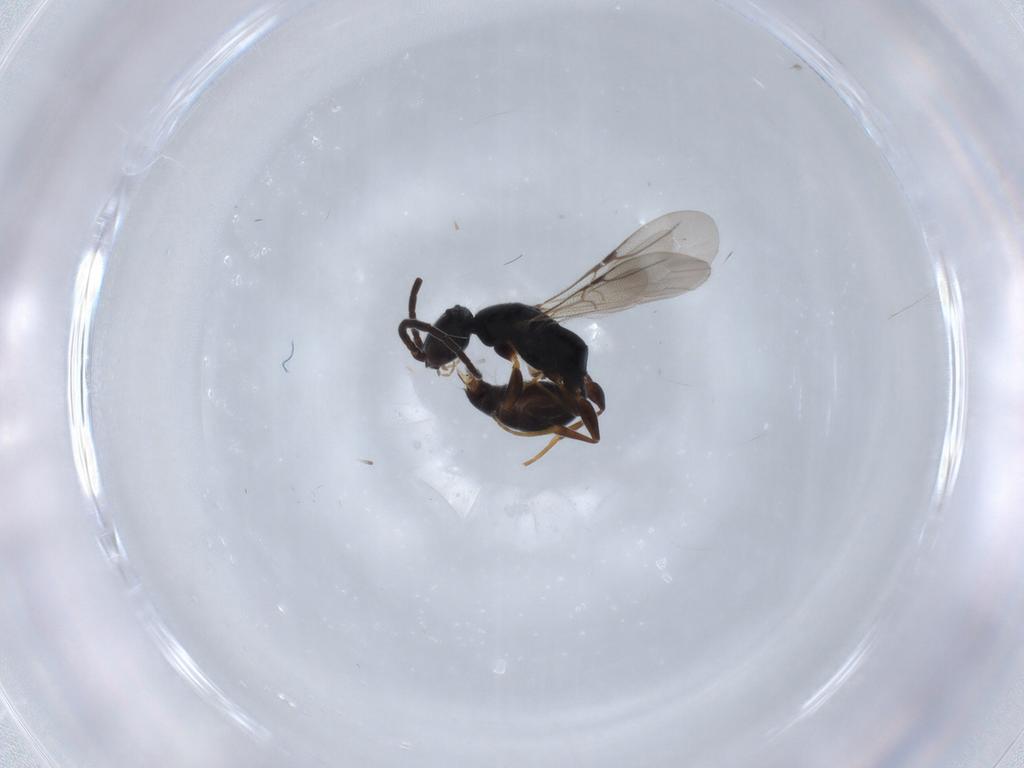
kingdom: Animalia
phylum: Arthropoda
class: Insecta
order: Hymenoptera
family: Bethylidae
